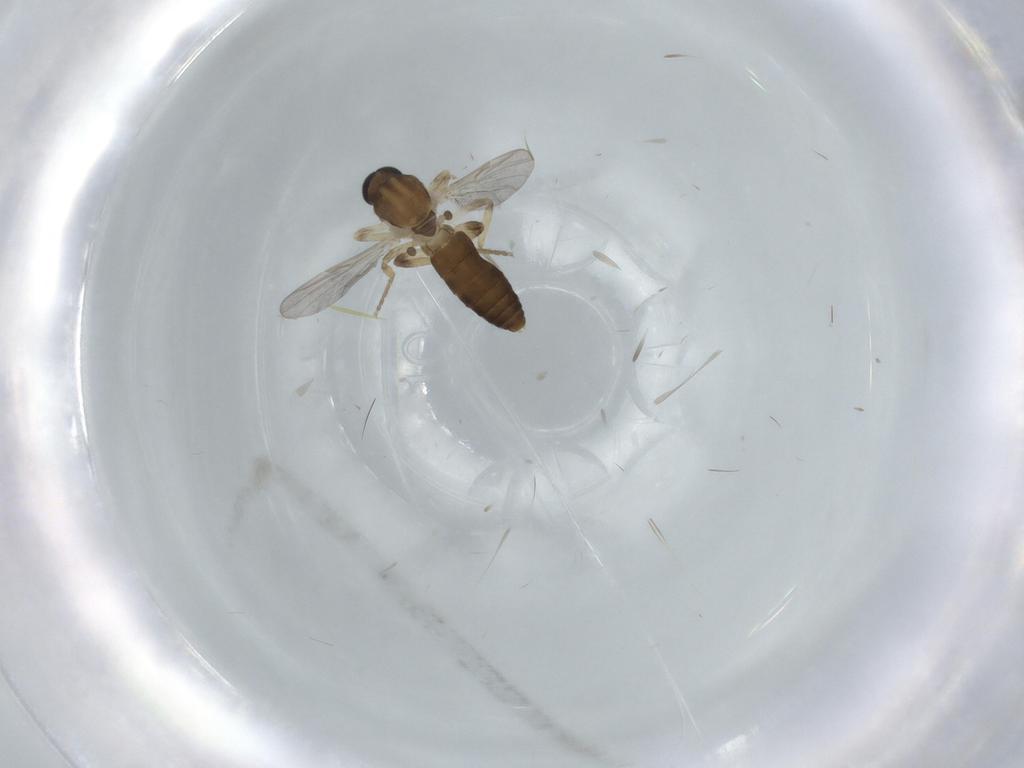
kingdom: Animalia
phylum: Arthropoda
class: Insecta
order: Diptera
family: Ceratopogonidae
